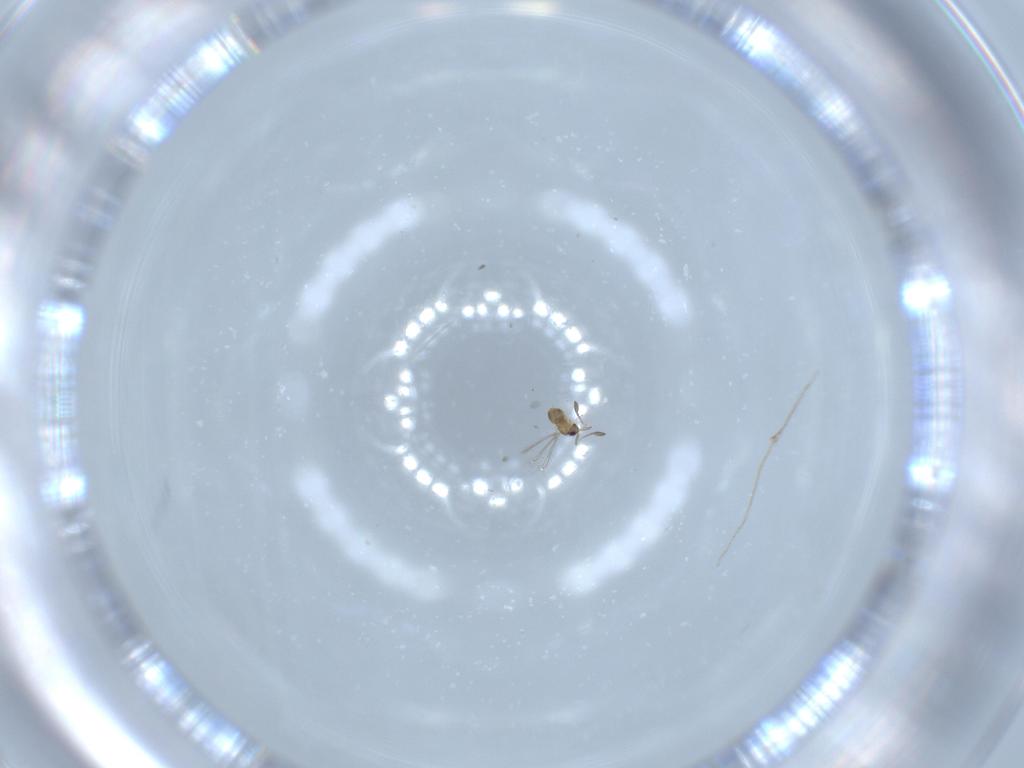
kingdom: Animalia
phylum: Arthropoda
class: Insecta
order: Hymenoptera
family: Mymaridae
